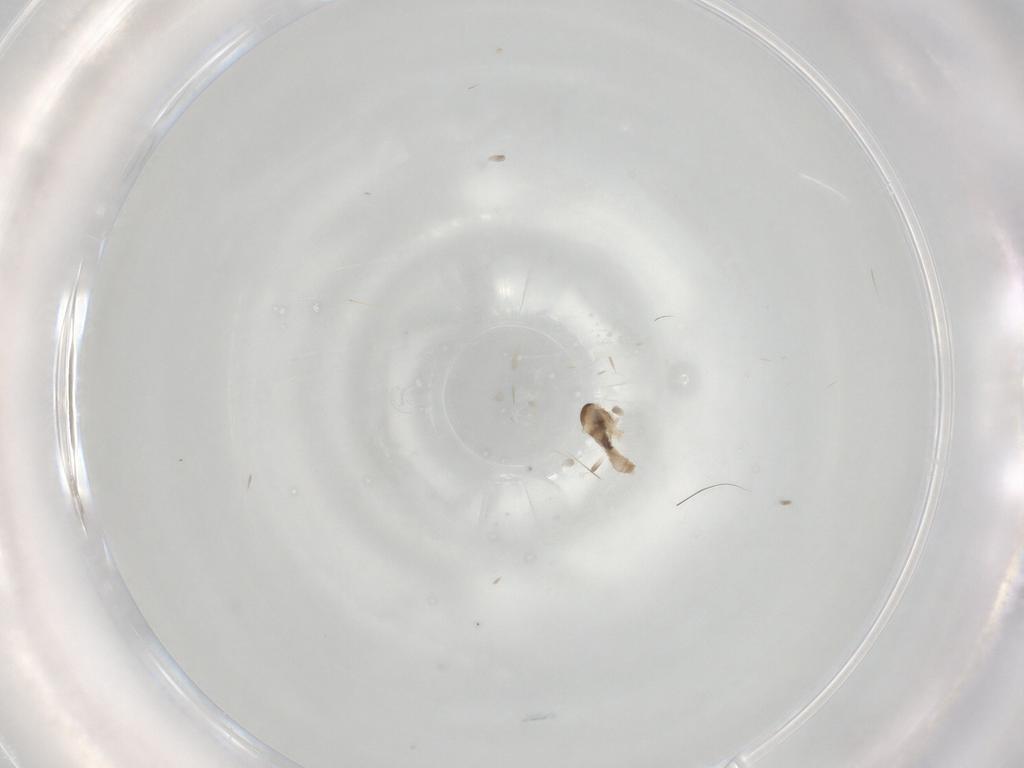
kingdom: Animalia
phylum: Arthropoda
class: Insecta
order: Diptera
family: Cecidomyiidae
